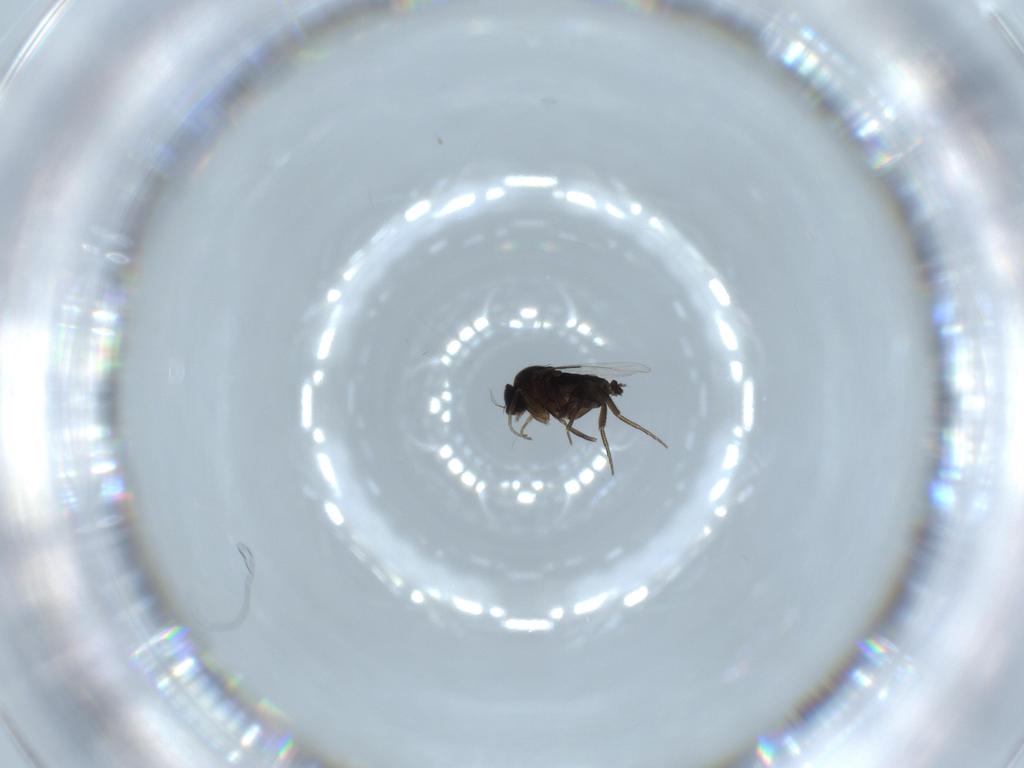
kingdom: Animalia
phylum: Arthropoda
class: Insecta
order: Diptera
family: Phoridae
